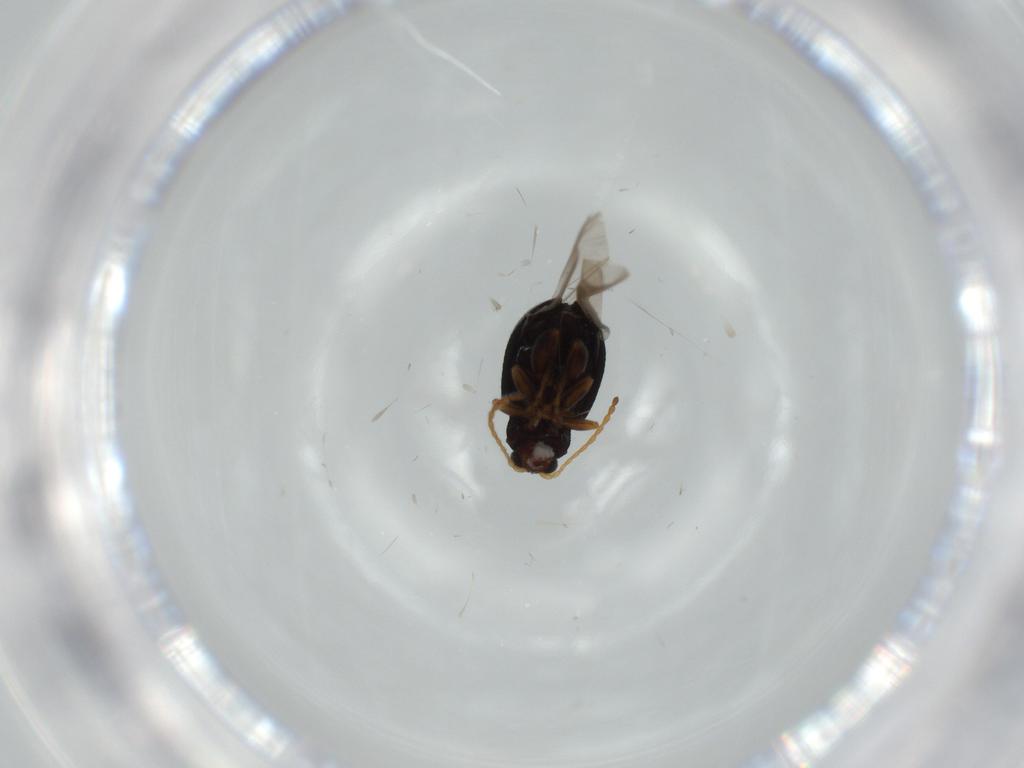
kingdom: Animalia
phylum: Arthropoda
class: Insecta
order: Coleoptera
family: Chrysomelidae
